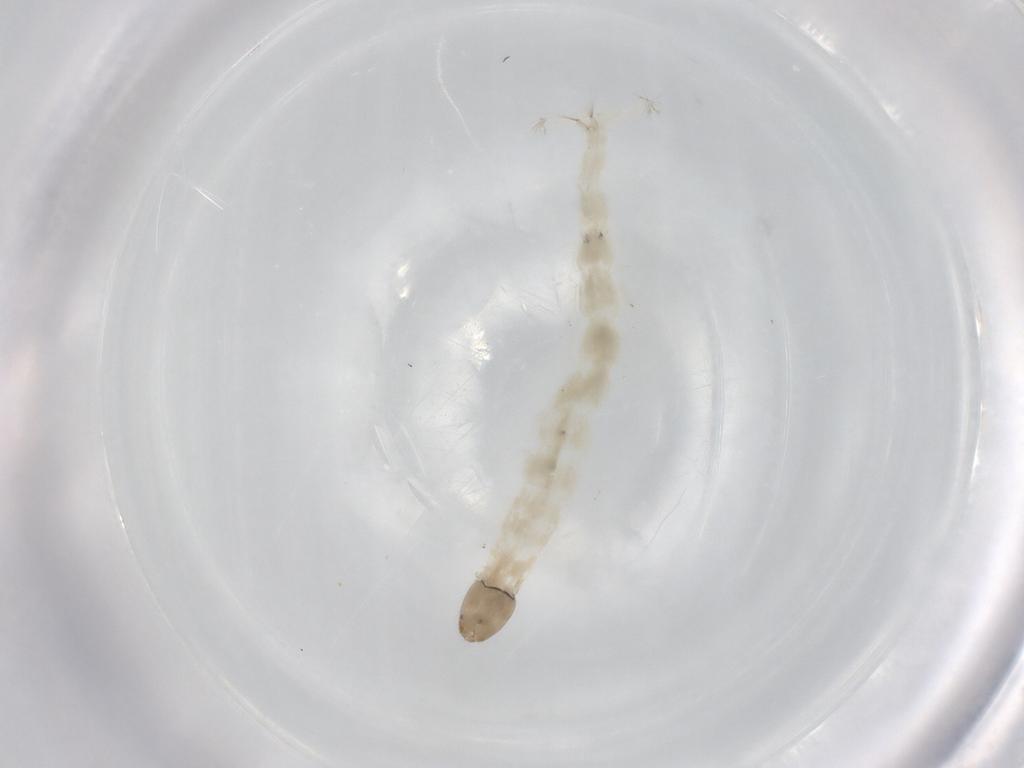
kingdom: Animalia
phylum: Arthropoda
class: Insecta
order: Diptera
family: Chironomidae
